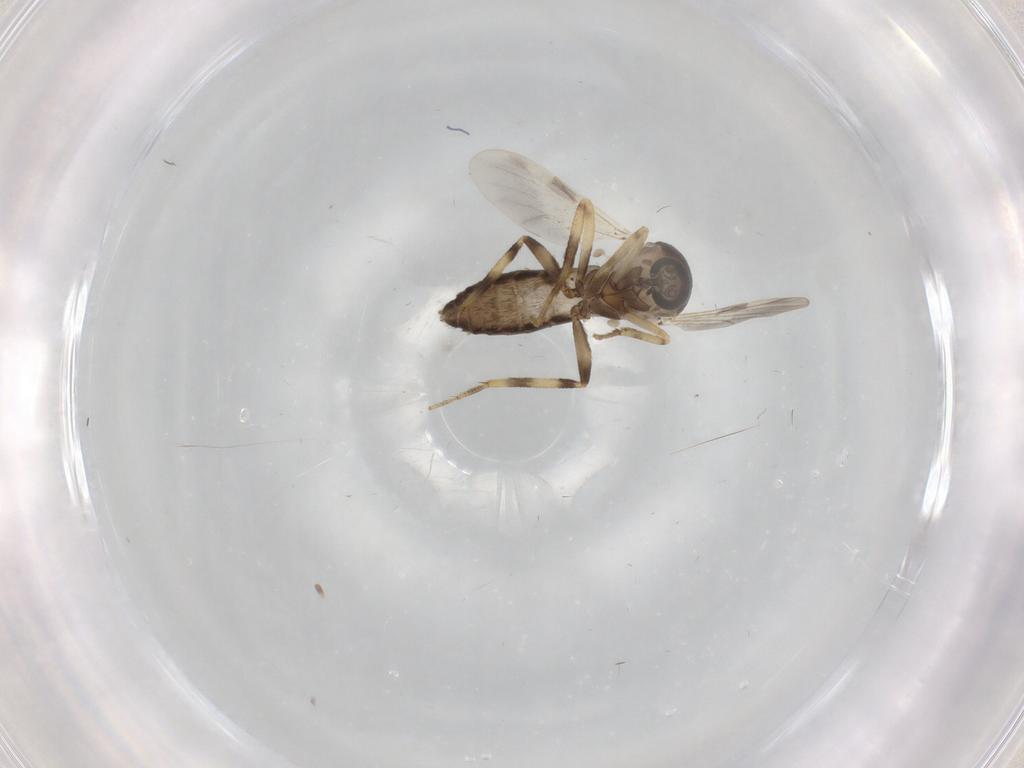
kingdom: Animalia
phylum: Arthropoda
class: Insecta
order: Diptera
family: Ceratopogonidae
